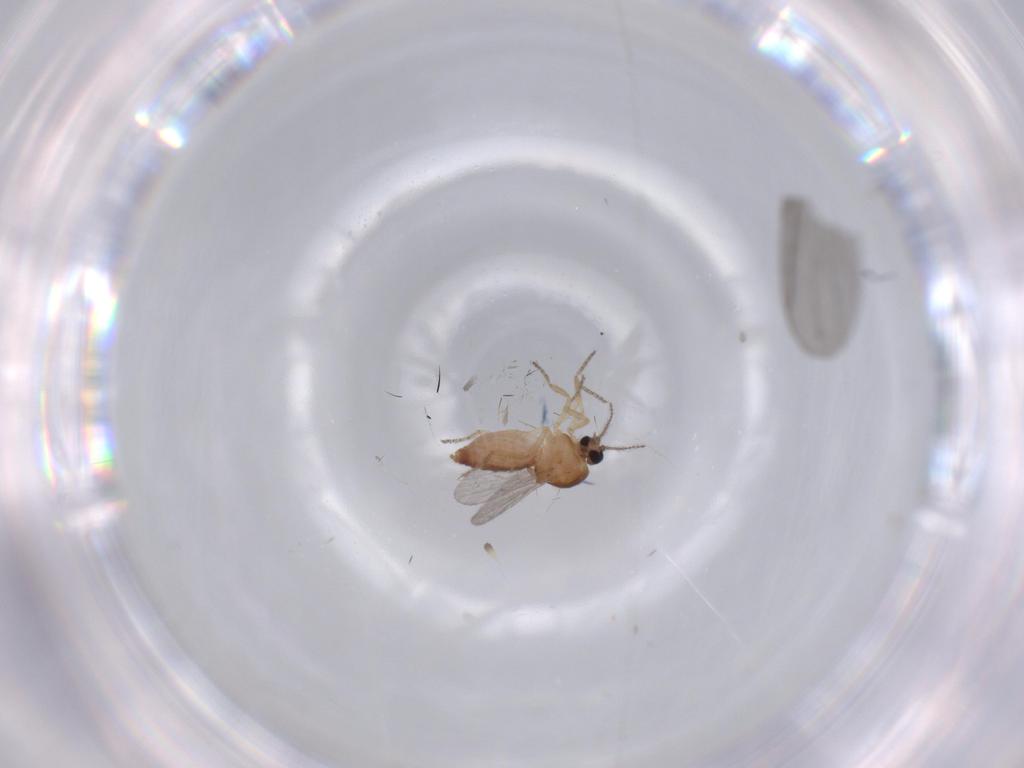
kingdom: Animalia
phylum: Arthropoda
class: Insecta
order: Diptera
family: Ceratopogonidae
